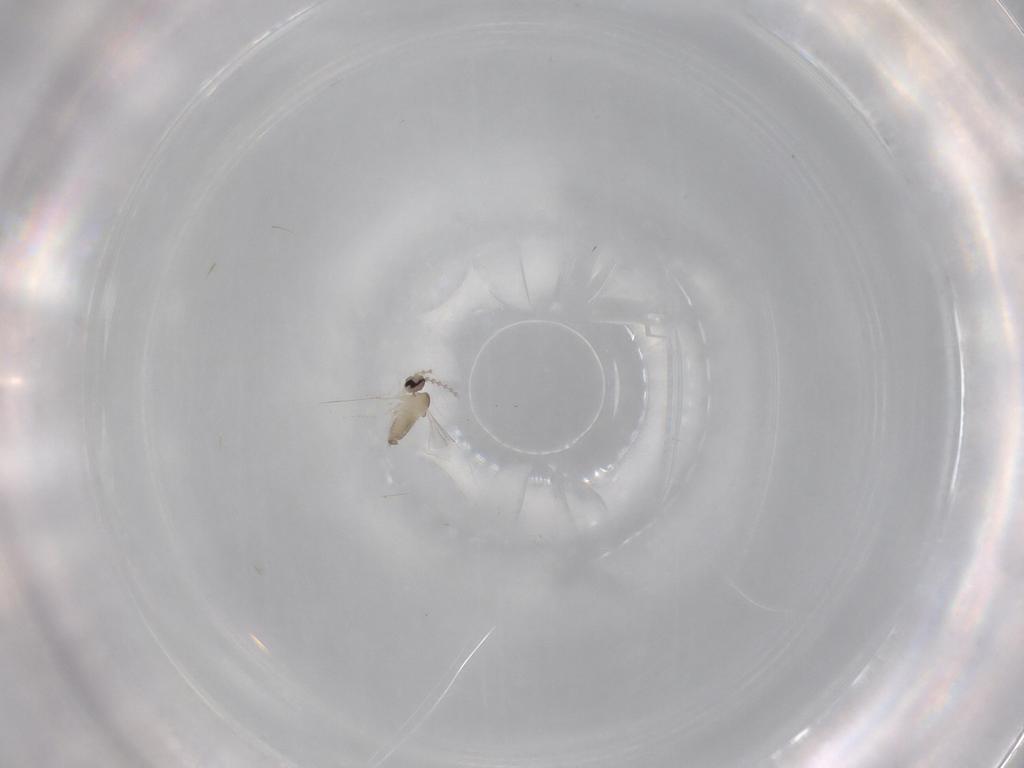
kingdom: Animalia
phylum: Arthropoda
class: Insecta
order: Diptera
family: Cecidomyiidae
